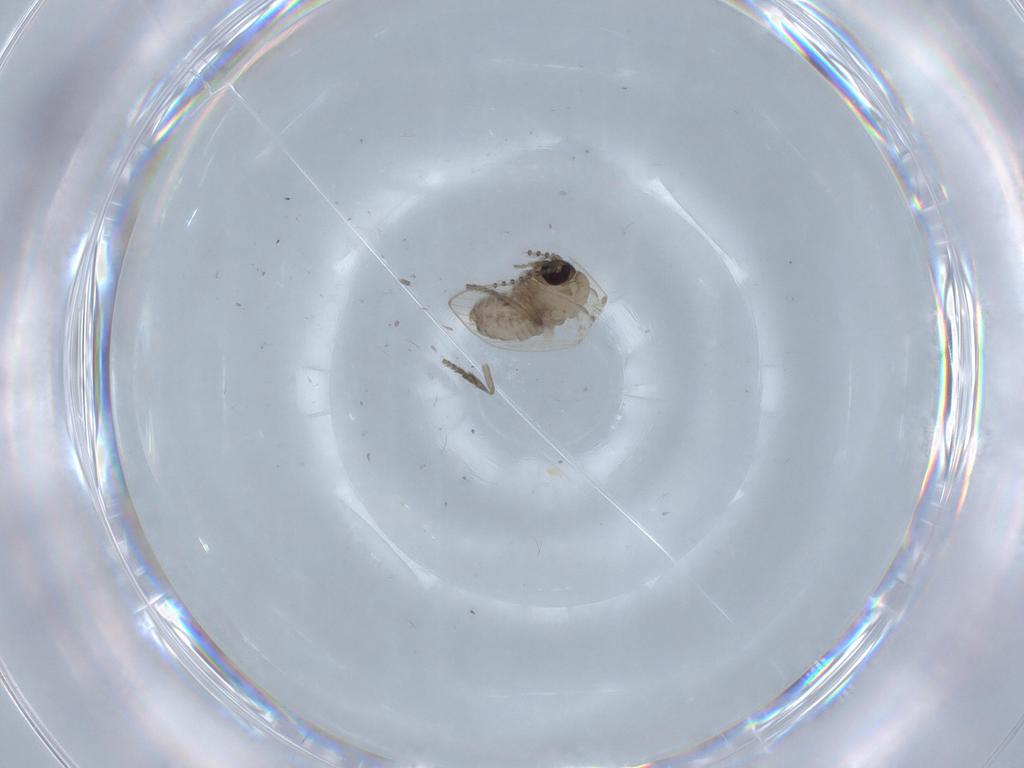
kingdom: Animalia
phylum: Arthropoda
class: Insecta
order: Diptera
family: Psychodidae
